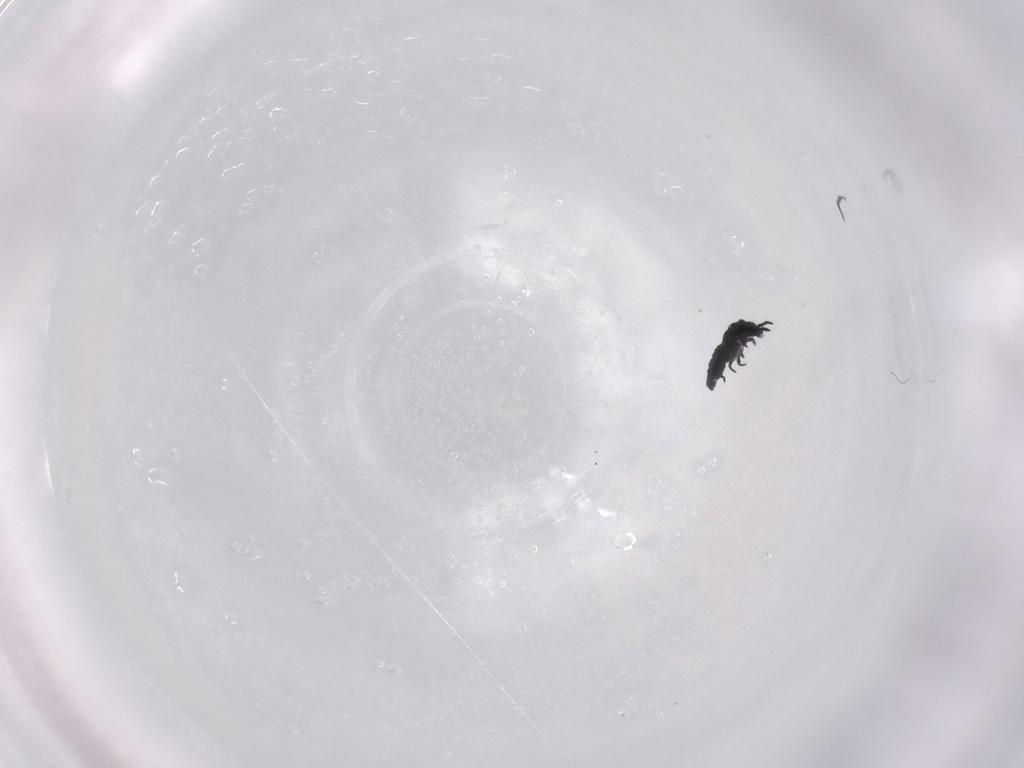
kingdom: Animalia
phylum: Arthropoda
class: Collembola
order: Poduromorpha
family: Hypogastruridae
